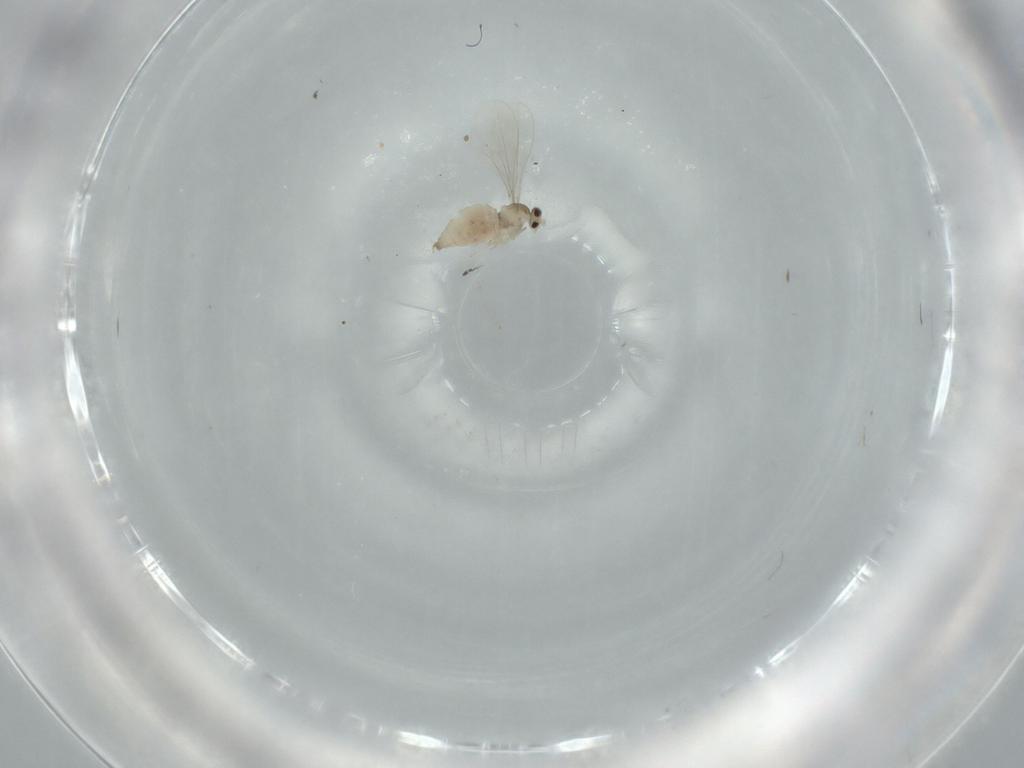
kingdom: Animalia
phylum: Arthropoda
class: Insecta
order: Diptera
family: Cecidomyiidae
